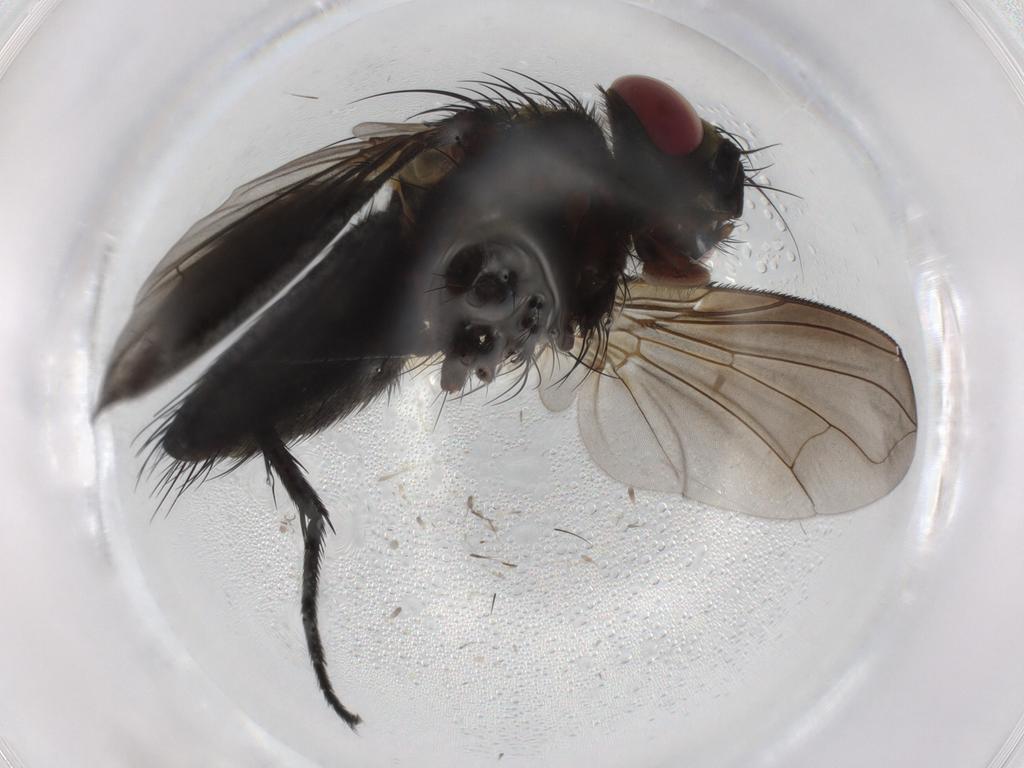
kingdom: Animalia
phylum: Arthropoda
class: Insecta
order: Diptera
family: Phoridae
